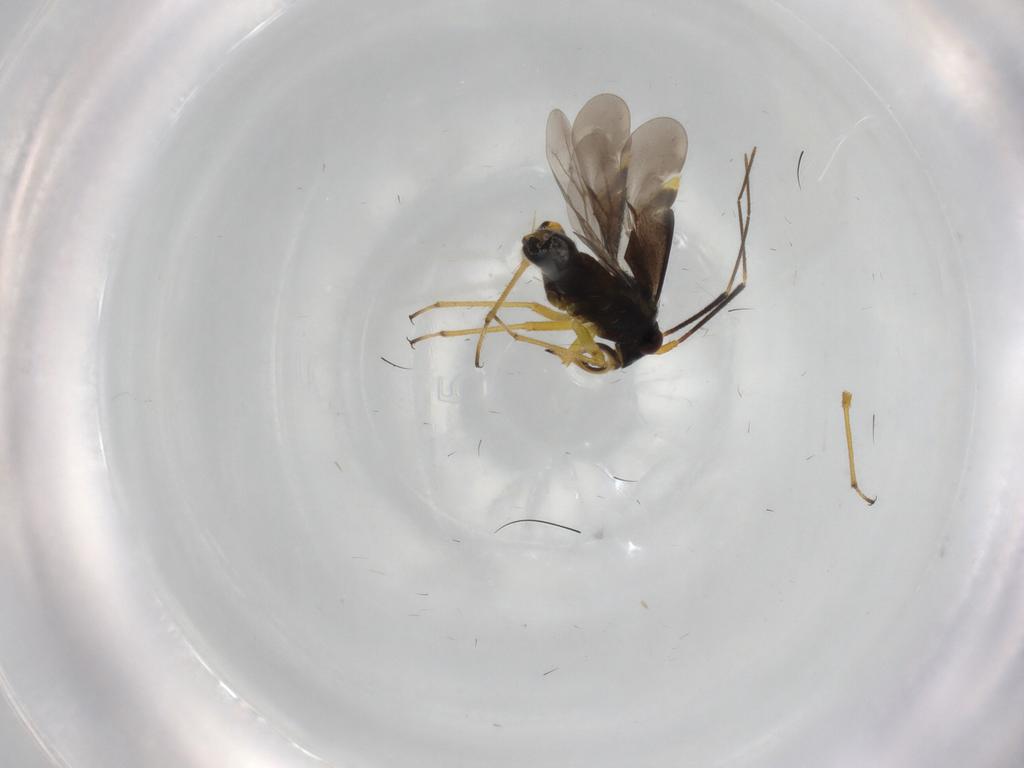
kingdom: Animalia
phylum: Arthropoda
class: Insecta
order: Hemiptera
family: Miridae
